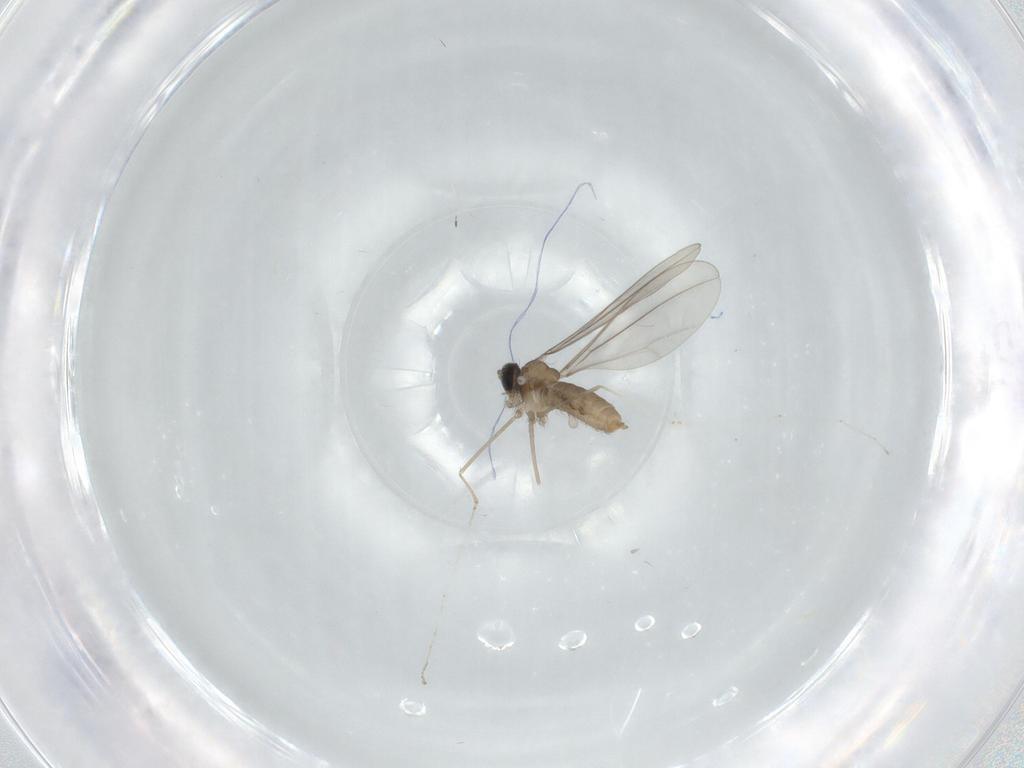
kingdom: Animalia
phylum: Arthropoda
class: Insecta
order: Diptera
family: Cecidomyiidae
